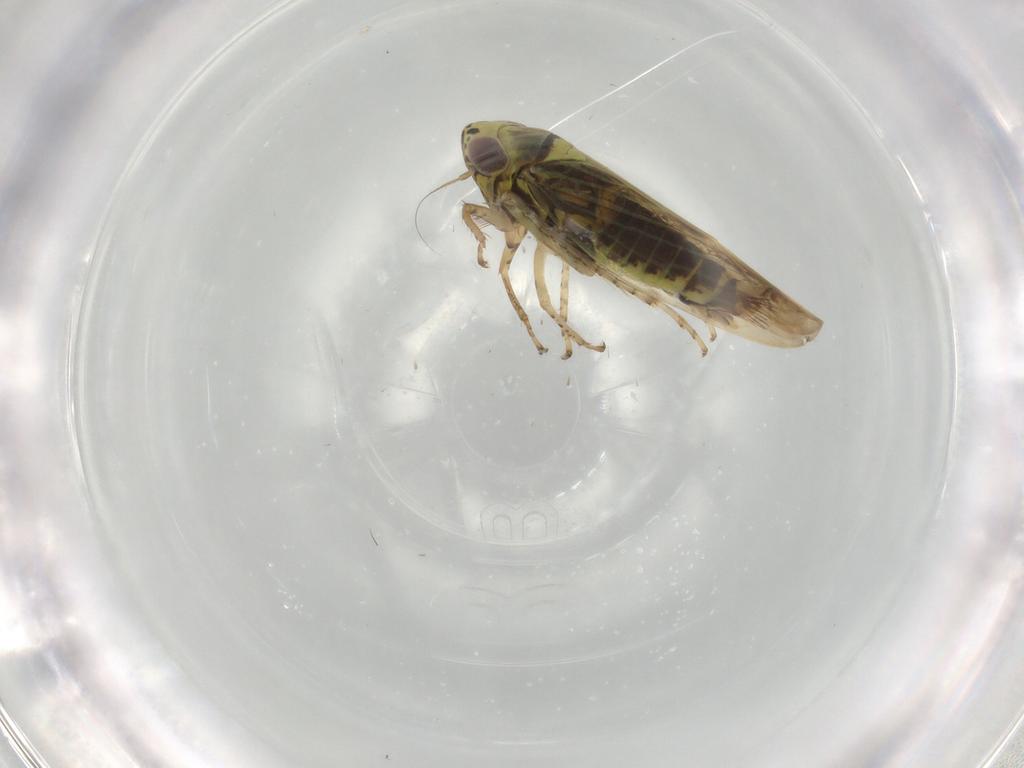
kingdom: Animalia
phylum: Arthropoda
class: Insecta
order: Hemiptera
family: Cicadellidae
